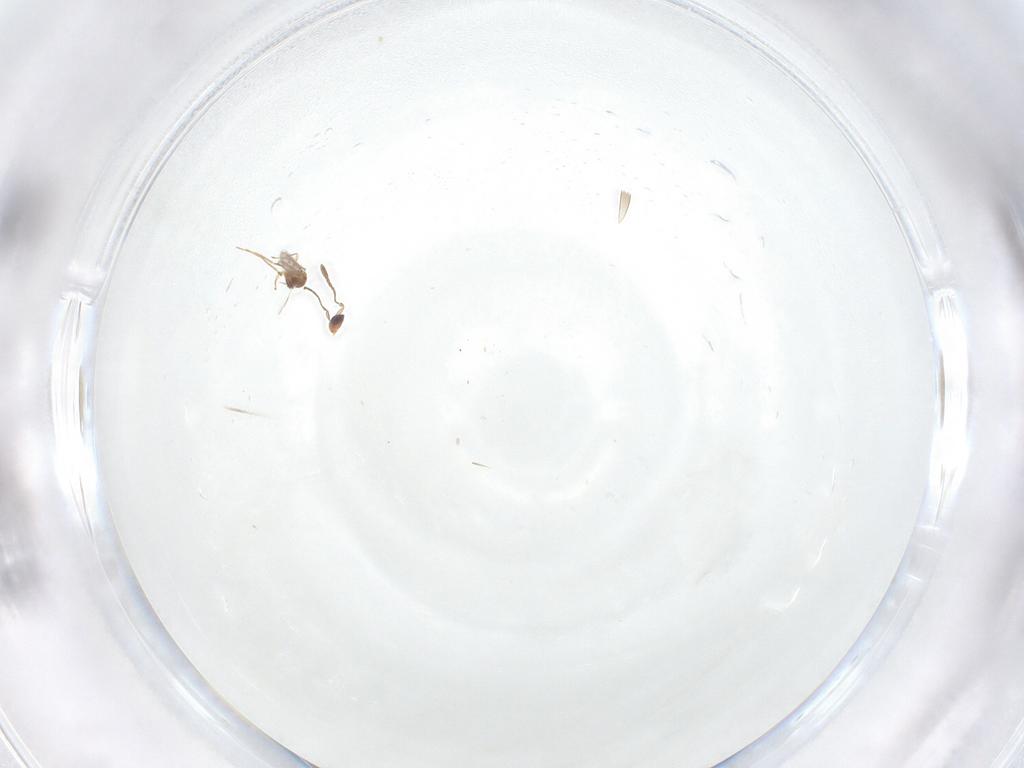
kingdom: Animalia
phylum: Arthropoda
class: Insecta
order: Hymenoptera
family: Mymaridae
